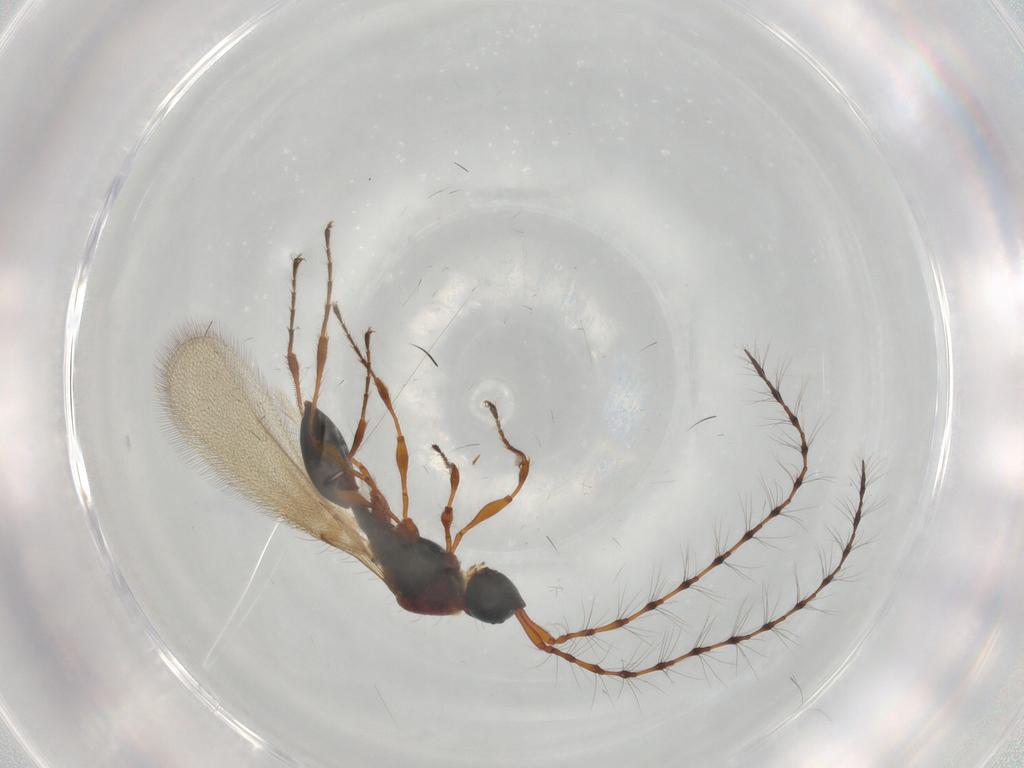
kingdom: Animalia
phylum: Arthropoda
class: Insecta
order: Hymenoptera
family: Diapriidae
